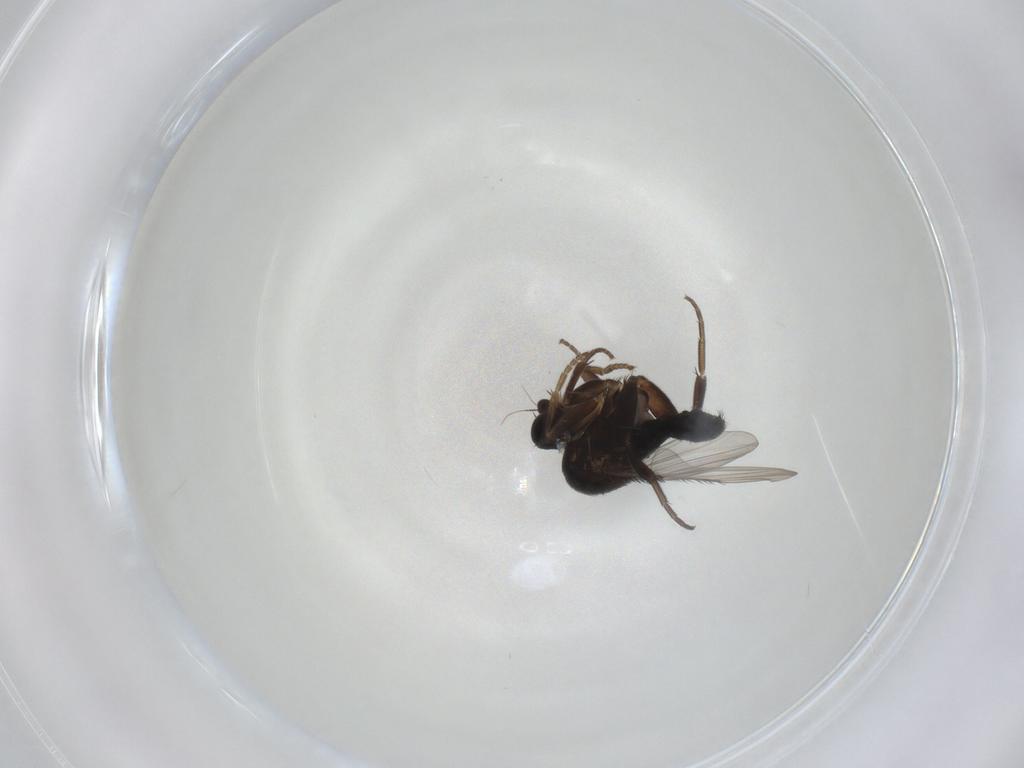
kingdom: Animalia
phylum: Arthropoda
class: Insecta
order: Diptera
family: Phoridae
